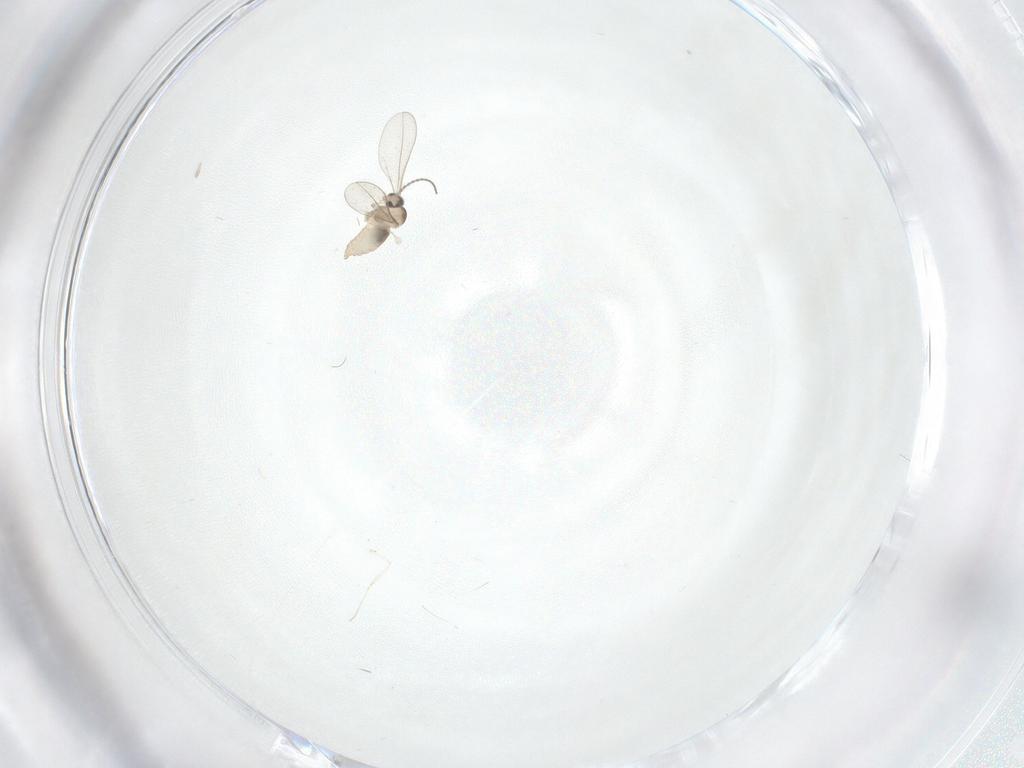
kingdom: Animalia
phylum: Arthropoda
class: Insecta
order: Diptera
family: Cecidomyiidae
